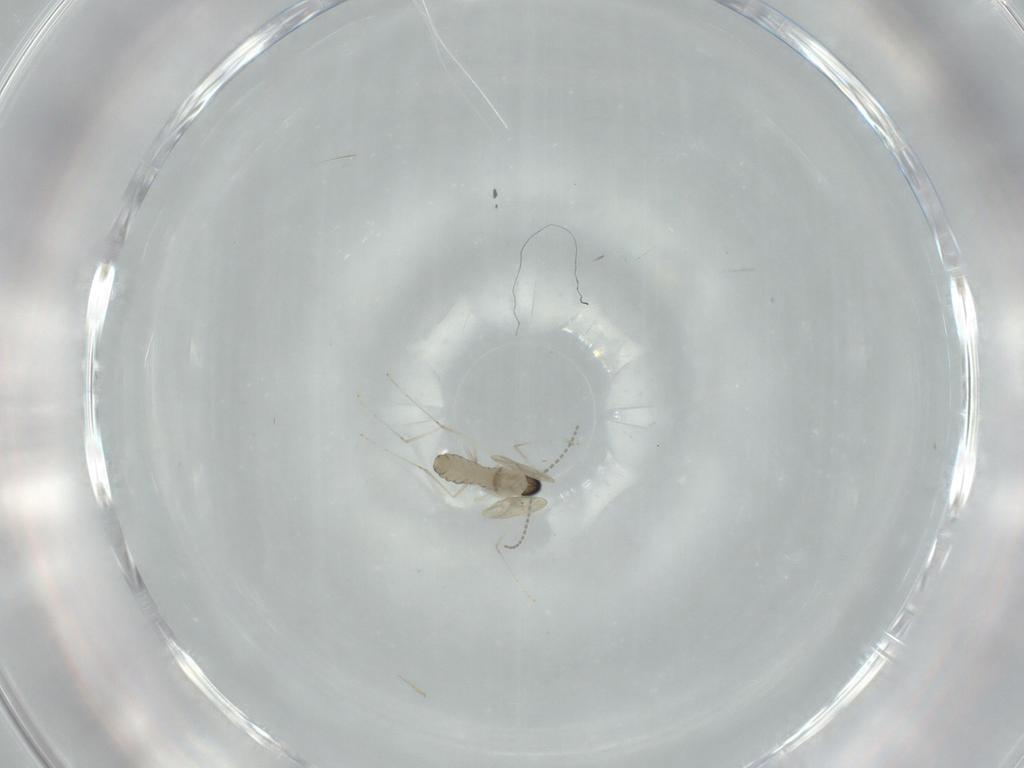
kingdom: Animalia
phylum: Arthropoda
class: Insecta
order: Diptera
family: Cecidomyiidae
